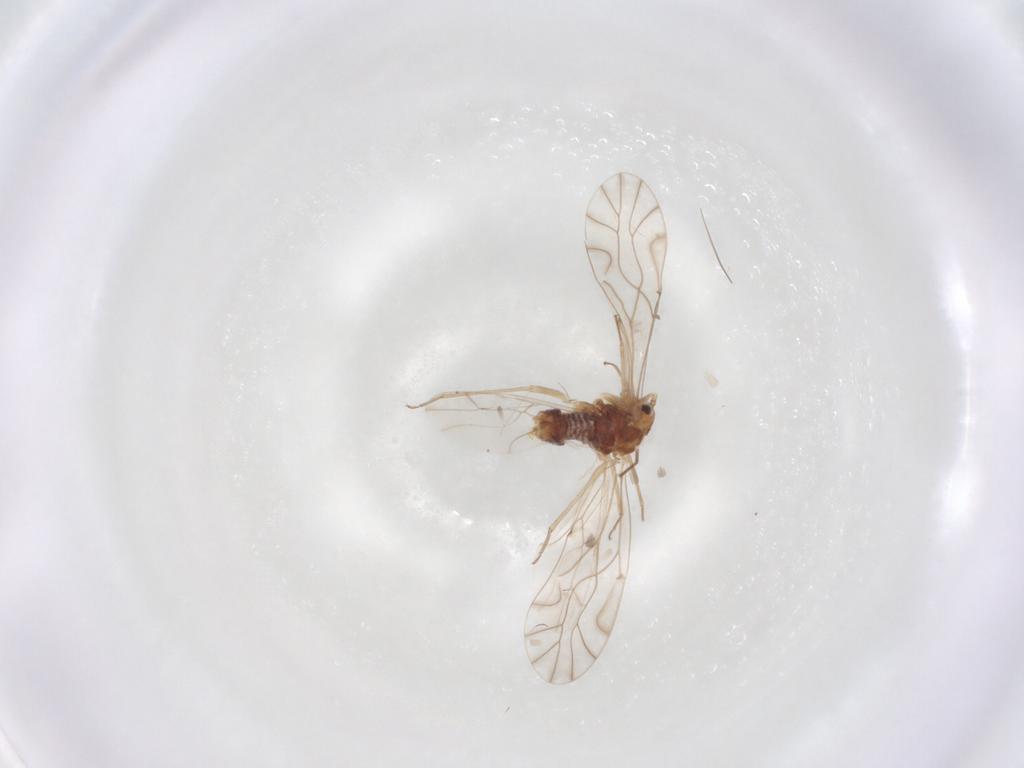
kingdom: Animalia
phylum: Arthropoda
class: Insecta
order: Psocodea
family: Lachesillidae
